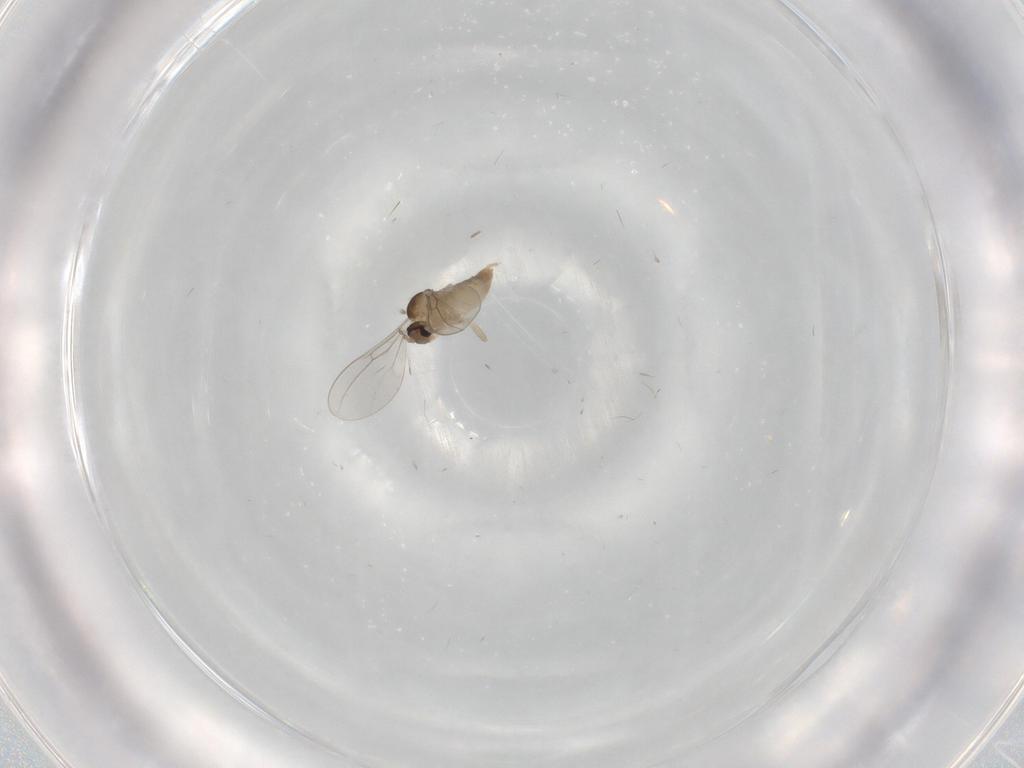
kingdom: Animalia
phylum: Arthropoda
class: Insecta
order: Diptera
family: Cecidomyiidae
